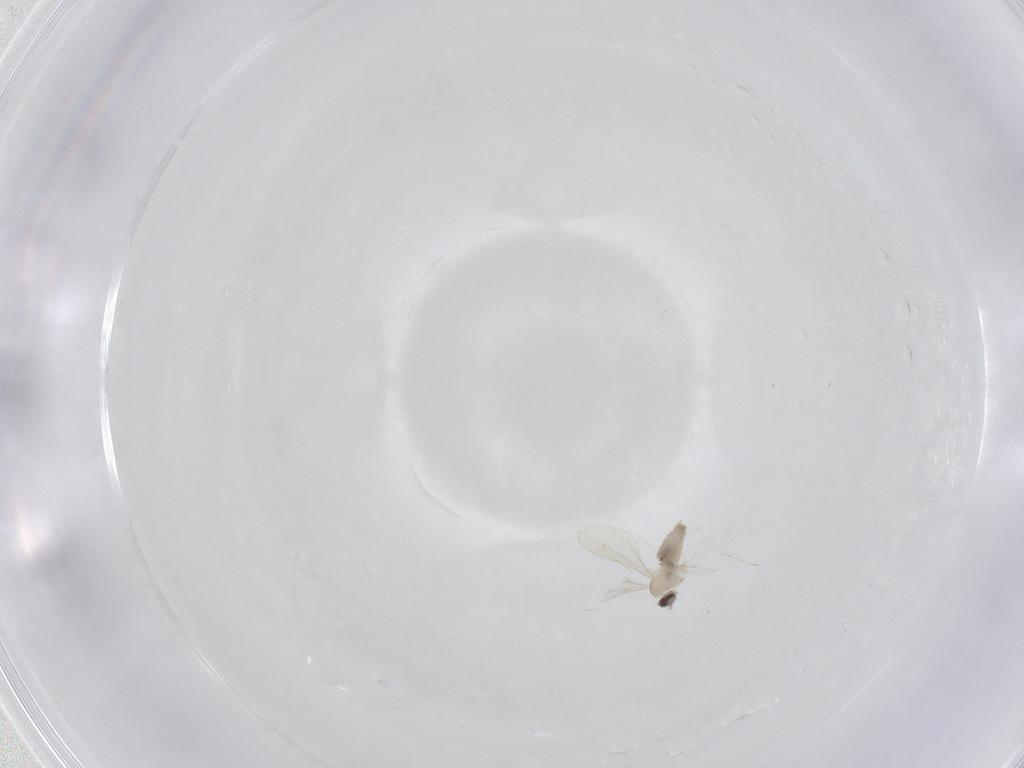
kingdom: Animalia
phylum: Arthropoda
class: Insecta
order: Diptera
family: Cecidomyiidae
